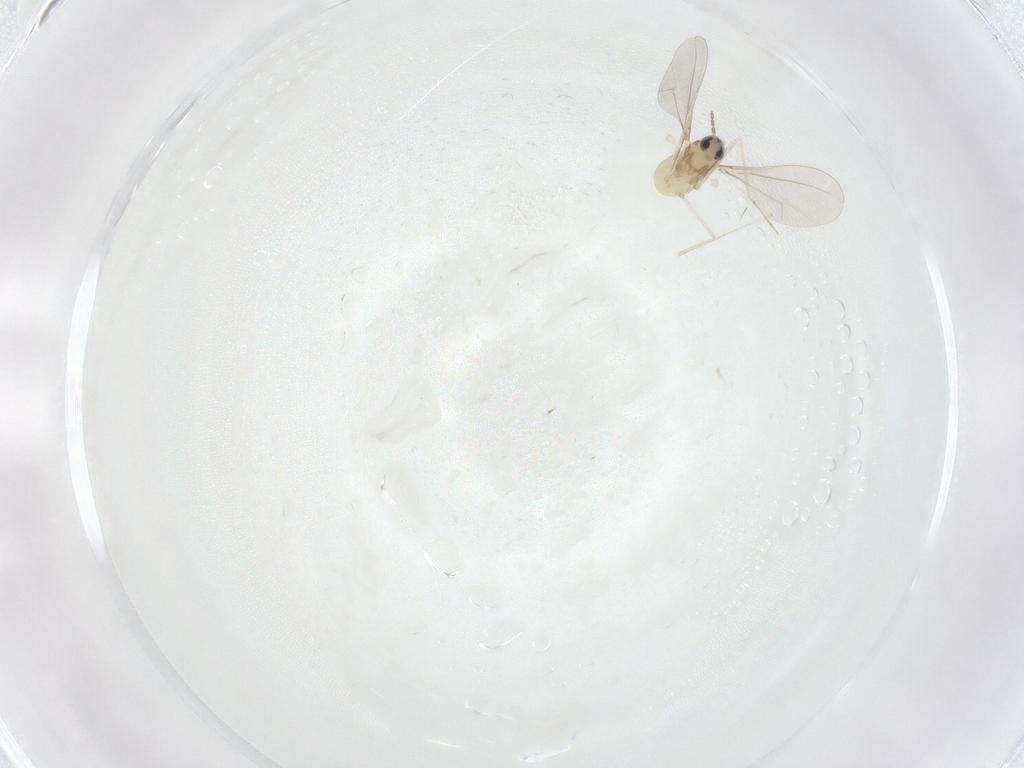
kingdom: Animalia
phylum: Arthropoda
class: Insecta
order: Diptera
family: Cecidomyiidae
